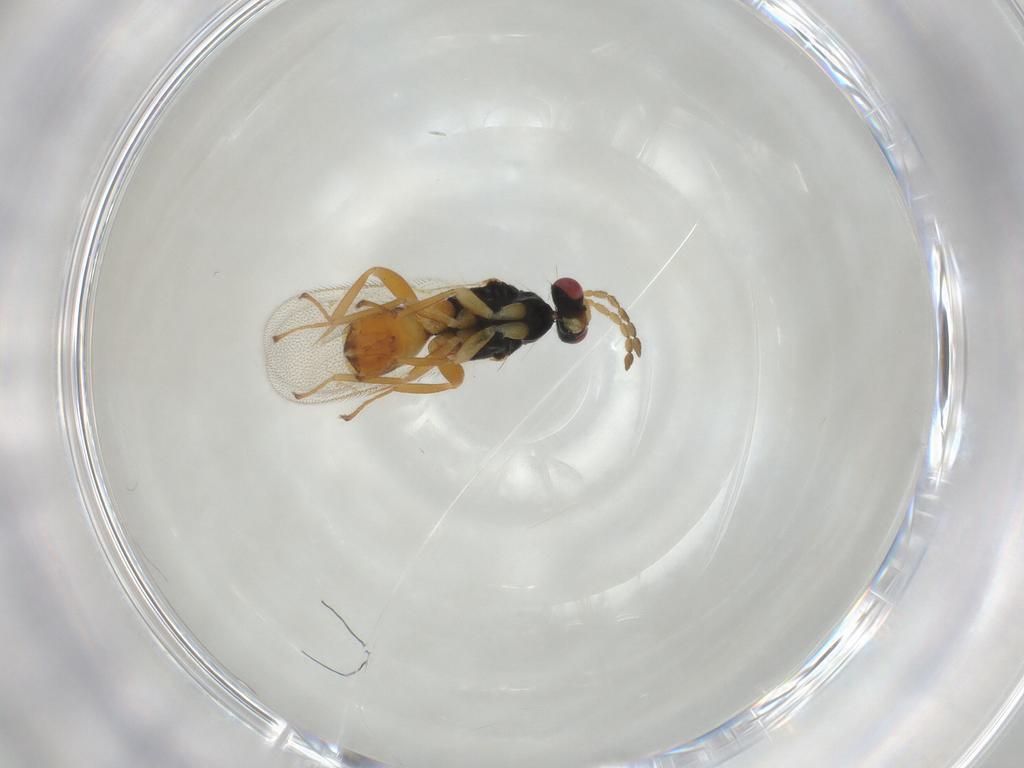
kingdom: Animalia
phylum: Arthropoda
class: Insecta
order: Hymenoptera
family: Eulophidae
